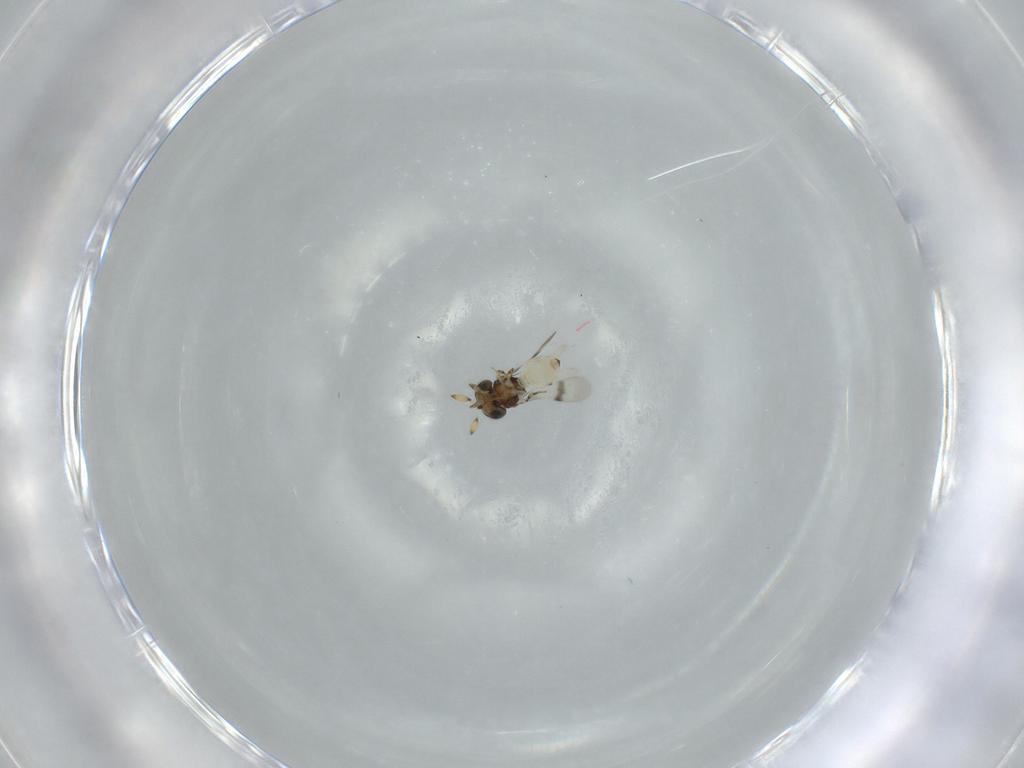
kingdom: Animalia
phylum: Arthropoda
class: Insecta
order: Hymenoptera
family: Scelionidae
